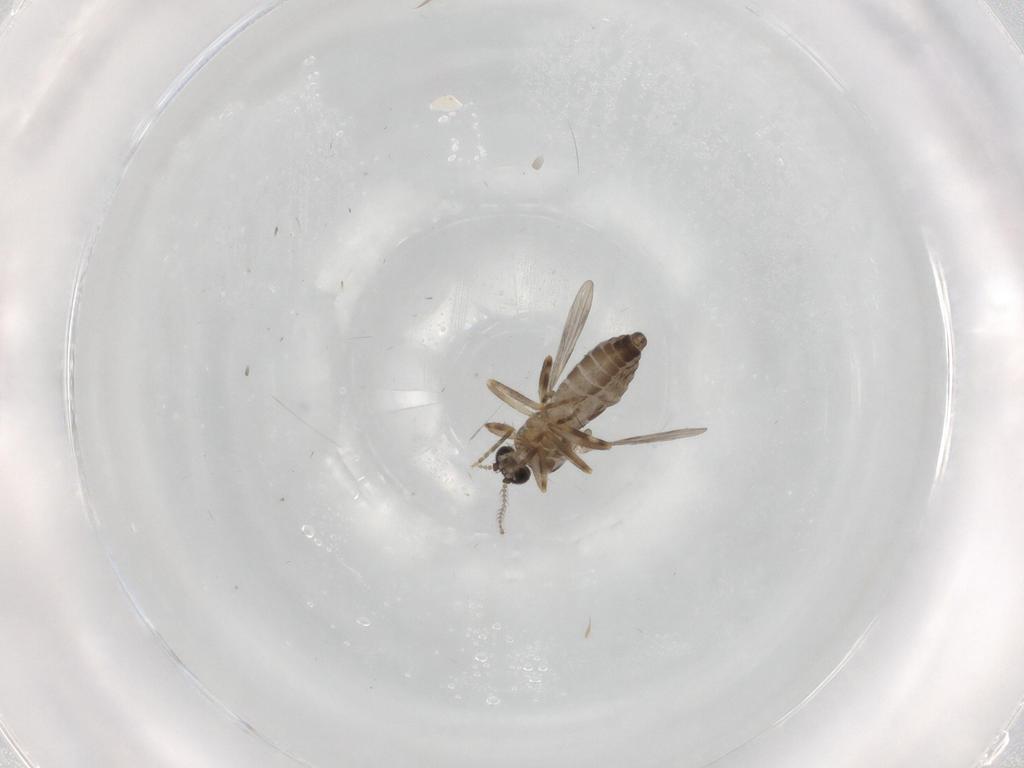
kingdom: Animalia
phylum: Arthropoda
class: Insecta
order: Diptera
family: Ceratopogonidae
